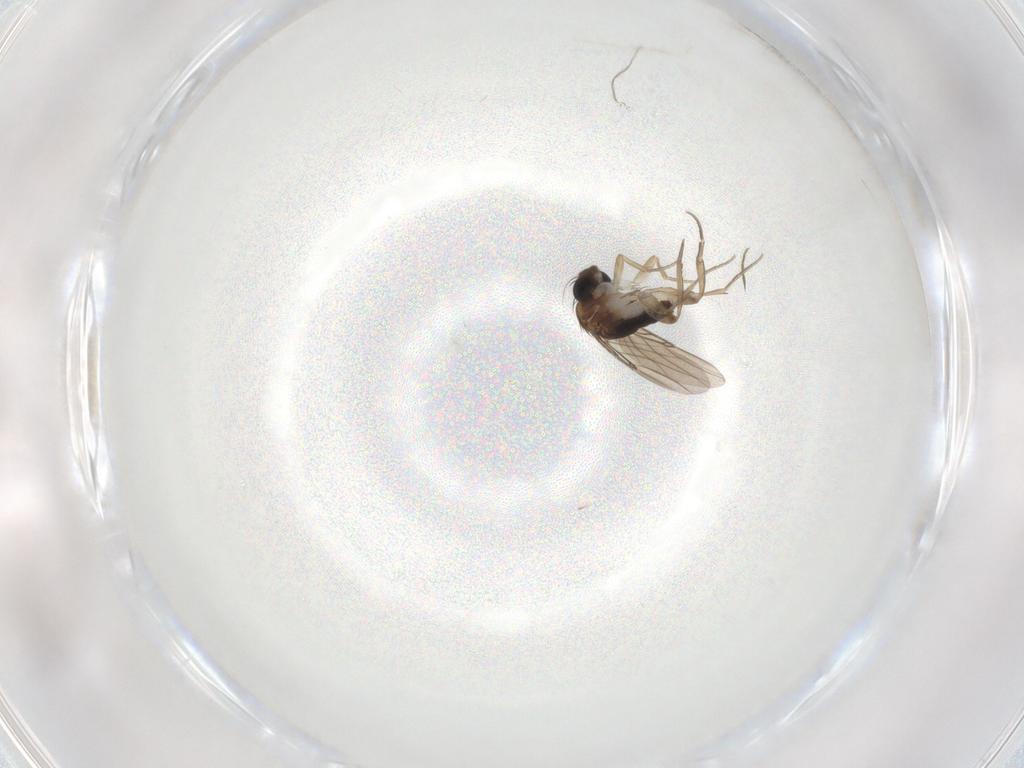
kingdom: Animalia
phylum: Arthropoda
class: Insecta
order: Diptera
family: Phoridae
